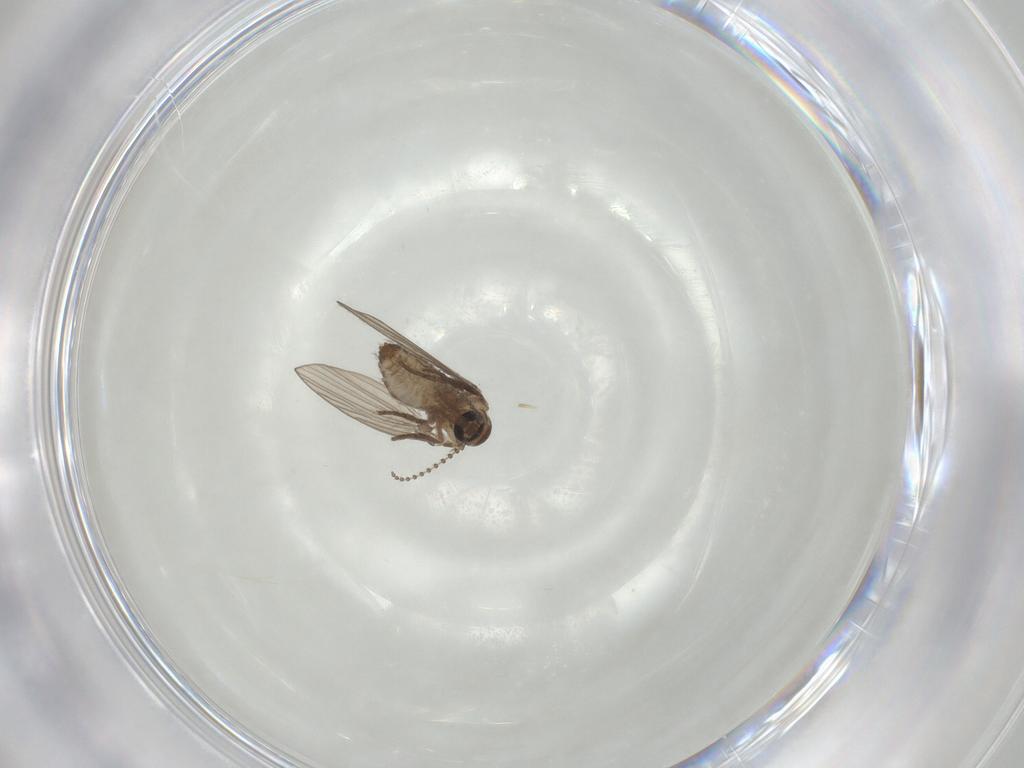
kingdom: Animalia
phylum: Arthropoda
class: Insecta
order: Diptera
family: Psychodidae
